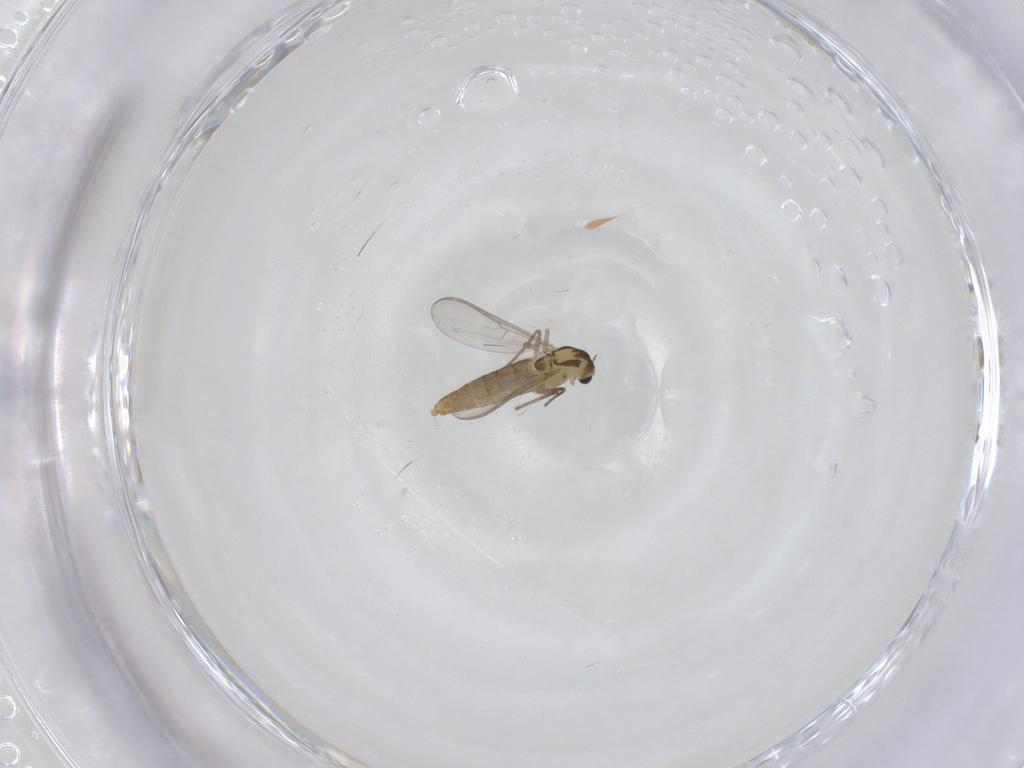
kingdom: Animalia
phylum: Arthropoda
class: Insecta
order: Diptera
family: Chironomidae
